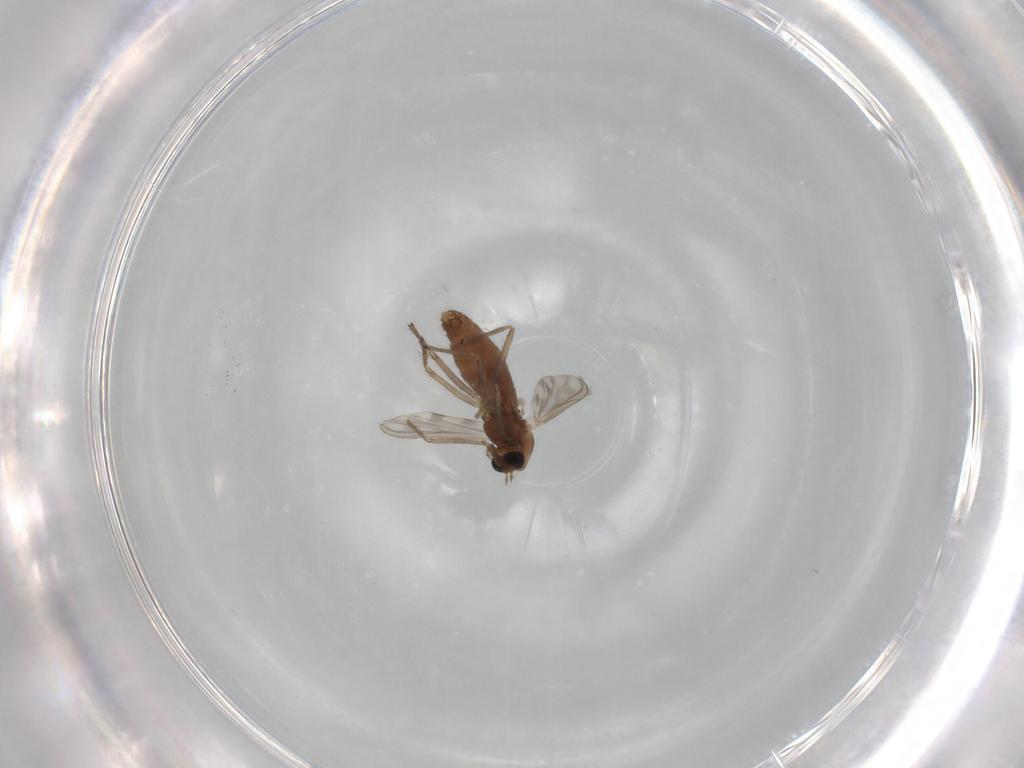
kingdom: Animalia
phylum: Arthropoda
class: Insecta
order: Diptera
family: Chironomidae
